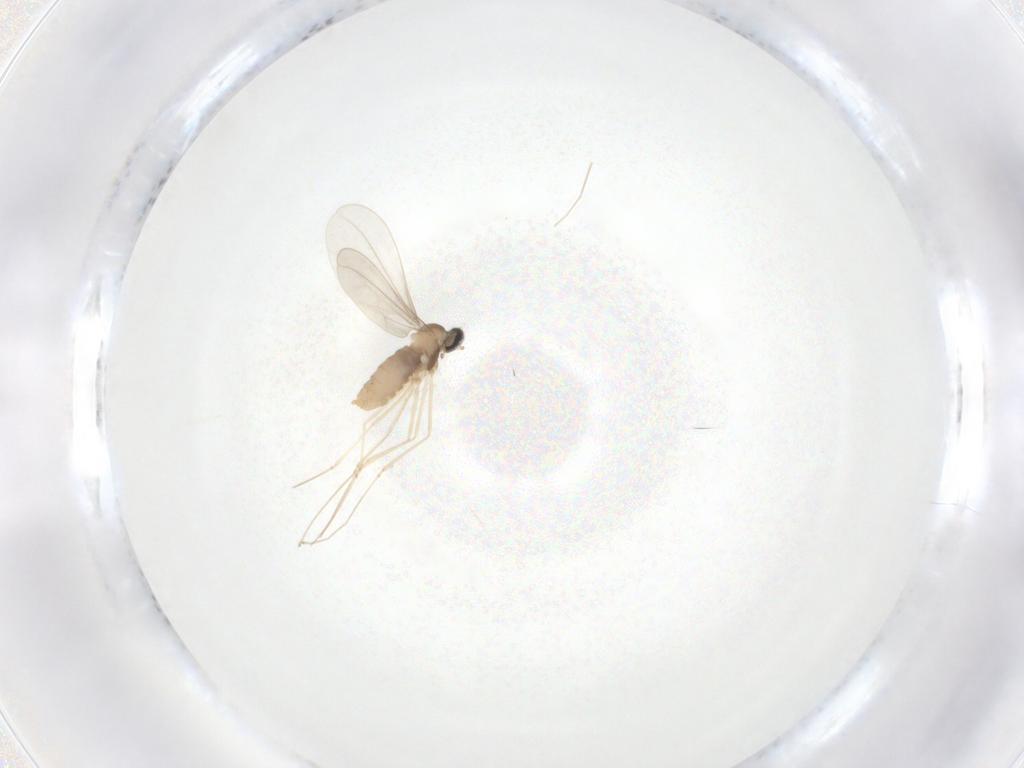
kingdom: Animalia
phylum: Arthropoda
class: Insecta
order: Diptera
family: Cecidomyiidae
